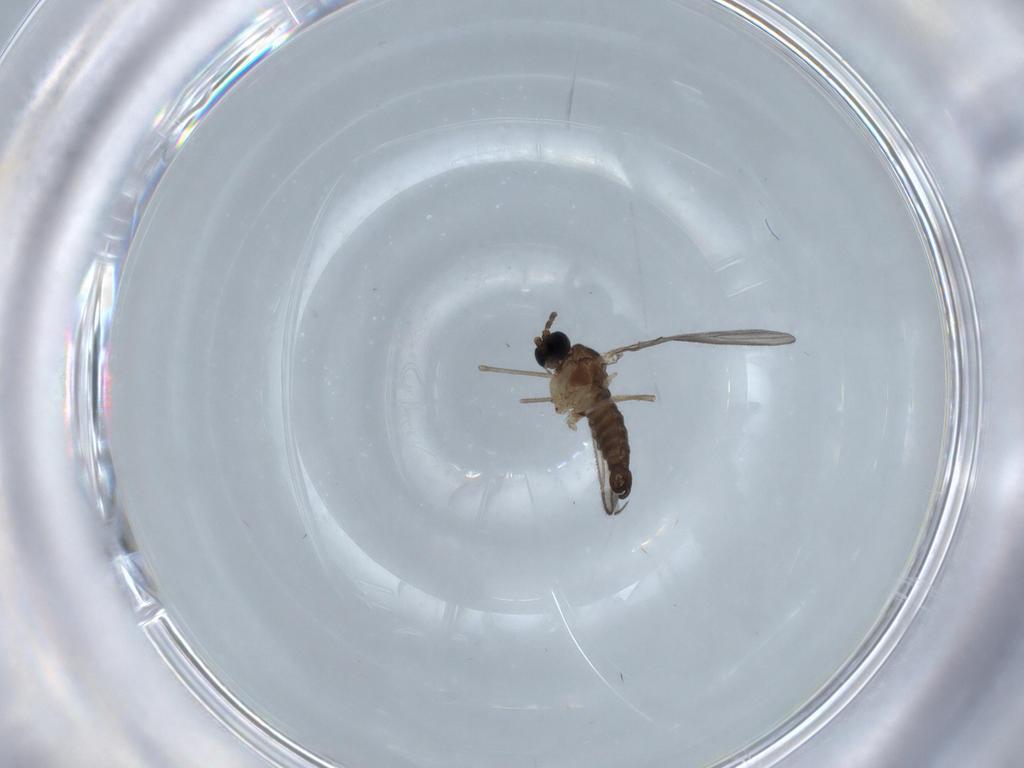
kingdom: Animalia
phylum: Arthropoda
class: Insecta
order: Diptera
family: Sciaridae
